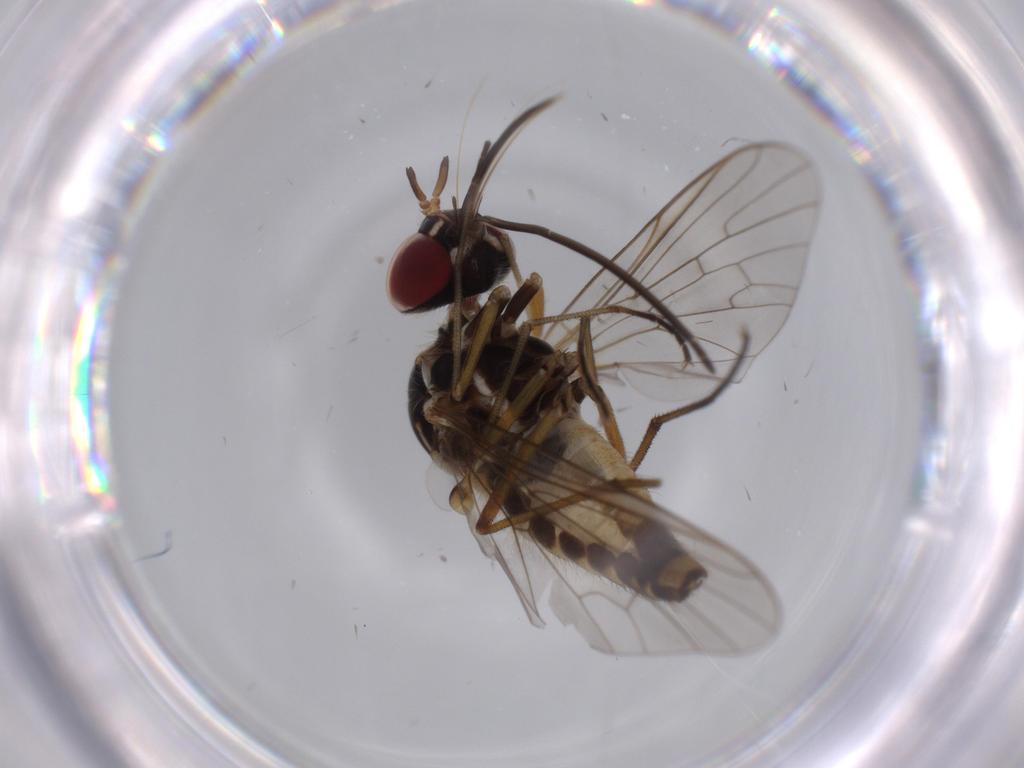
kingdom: Animalia
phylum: Arthropoda
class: Insecta
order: Diptera
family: Bombyliidae
